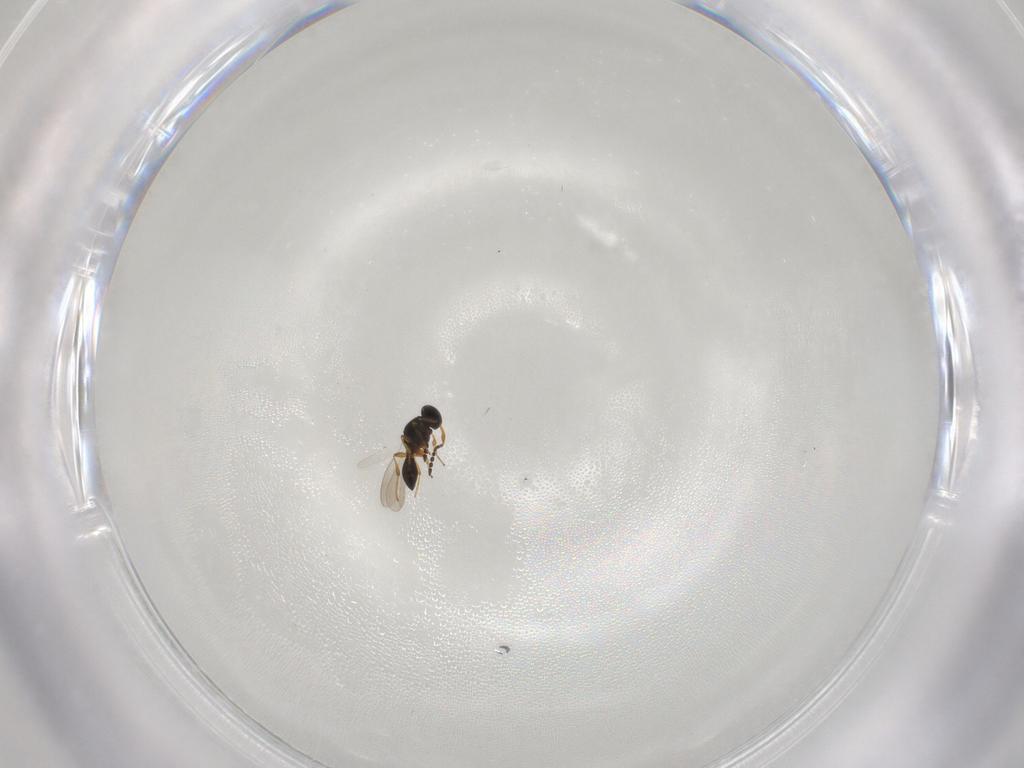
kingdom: Animalia
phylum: Arthropoda
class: Insecta
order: Hymenoptera
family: Platygastridae
